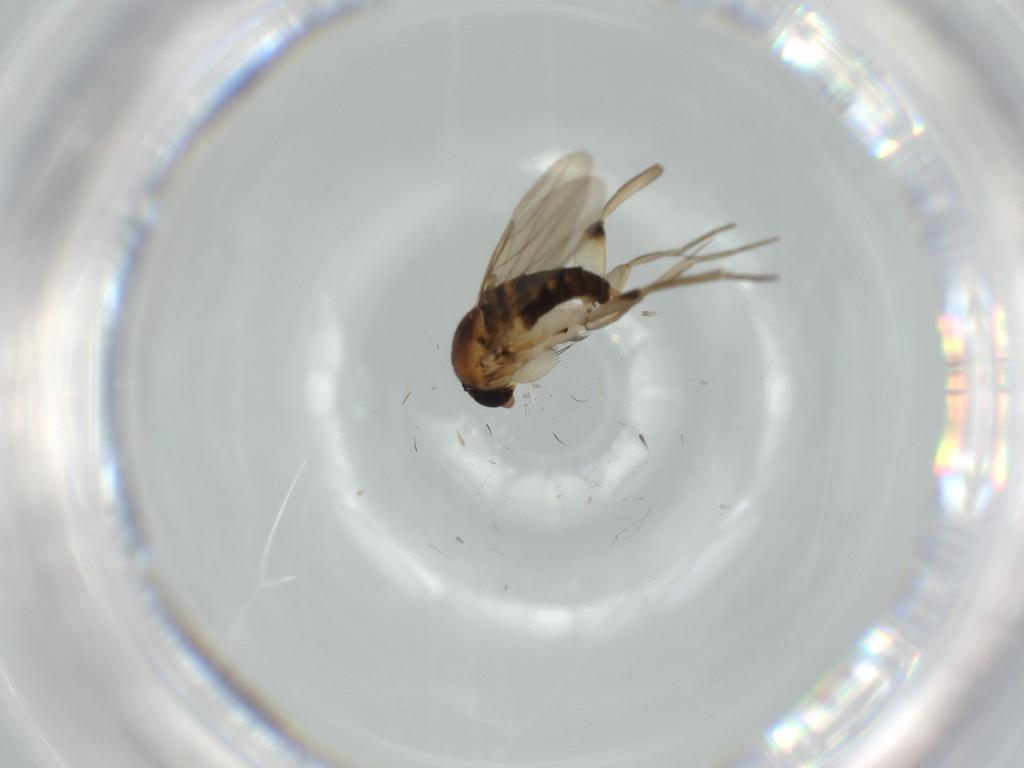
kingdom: Animalia
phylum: Arthropoda
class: Insecta
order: Diptera
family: Phoridae
